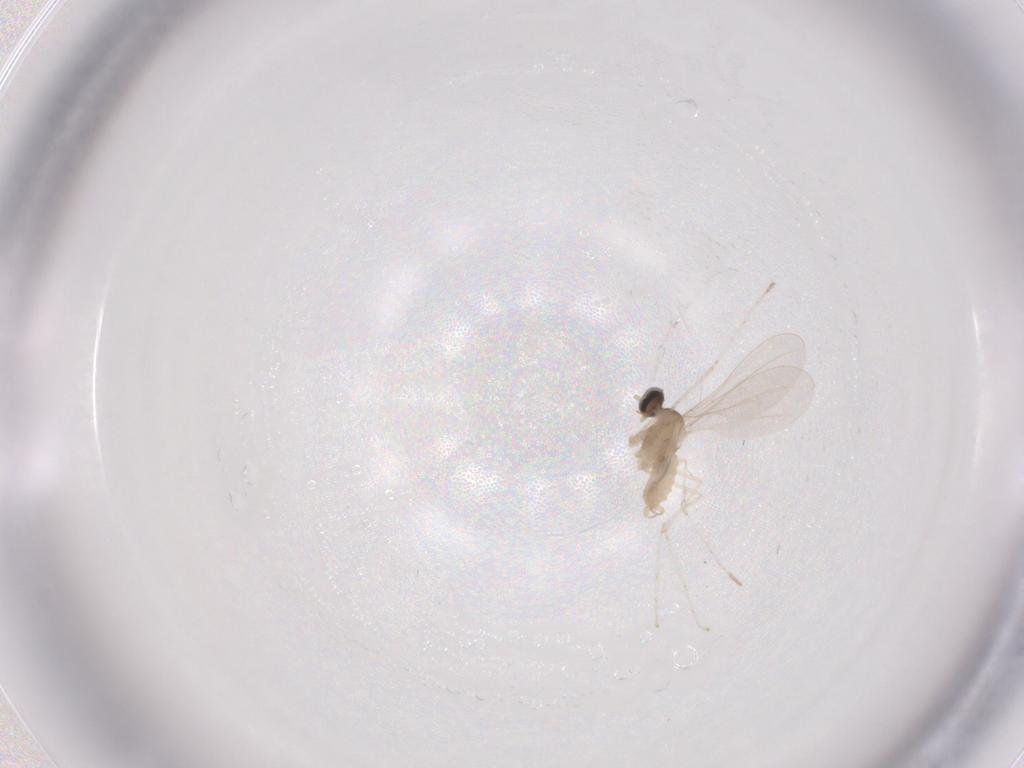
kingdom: Animalia
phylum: Arthropoda
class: Insecta
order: Diptera
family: Cecidomyiidae
